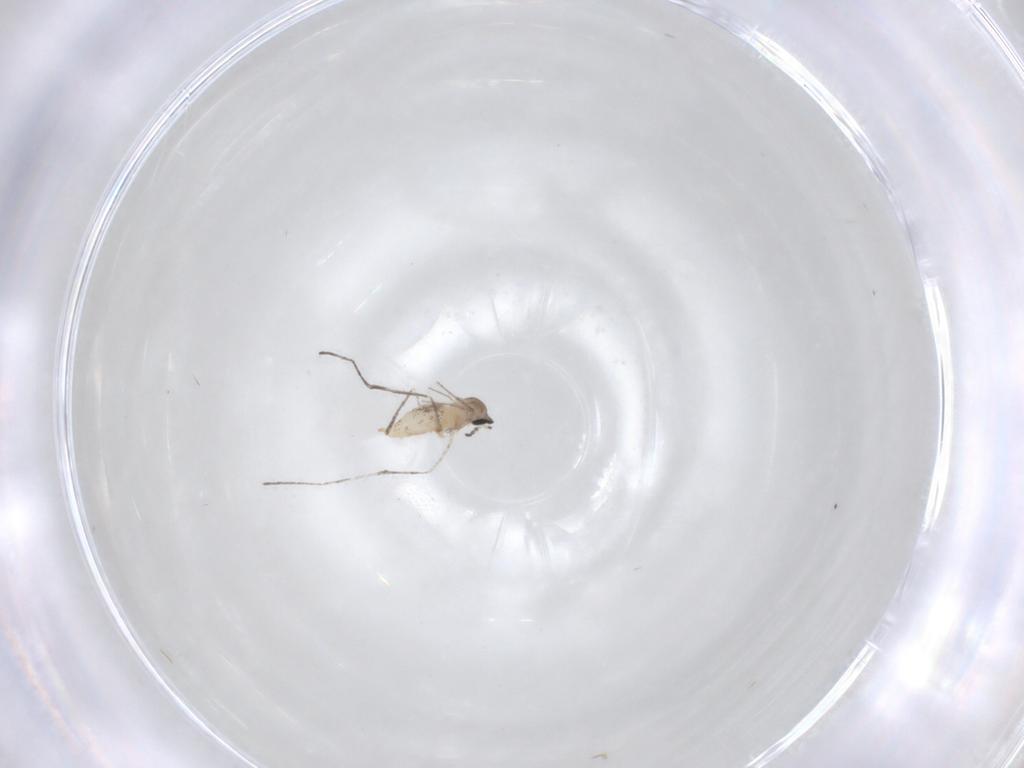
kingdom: Animalia
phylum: Arthropoda
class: Insecta
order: Diptera
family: Cecidomyiidae
